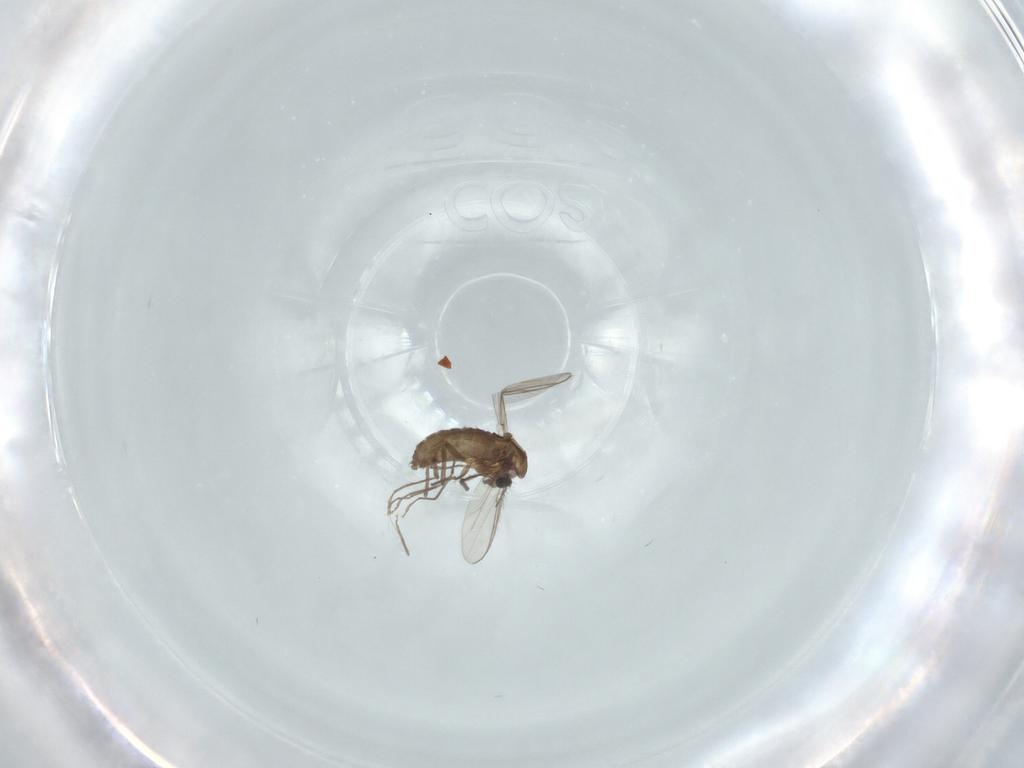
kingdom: Animalia
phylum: Arthropoda
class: Insecta
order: Diptera
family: Chironomidae
